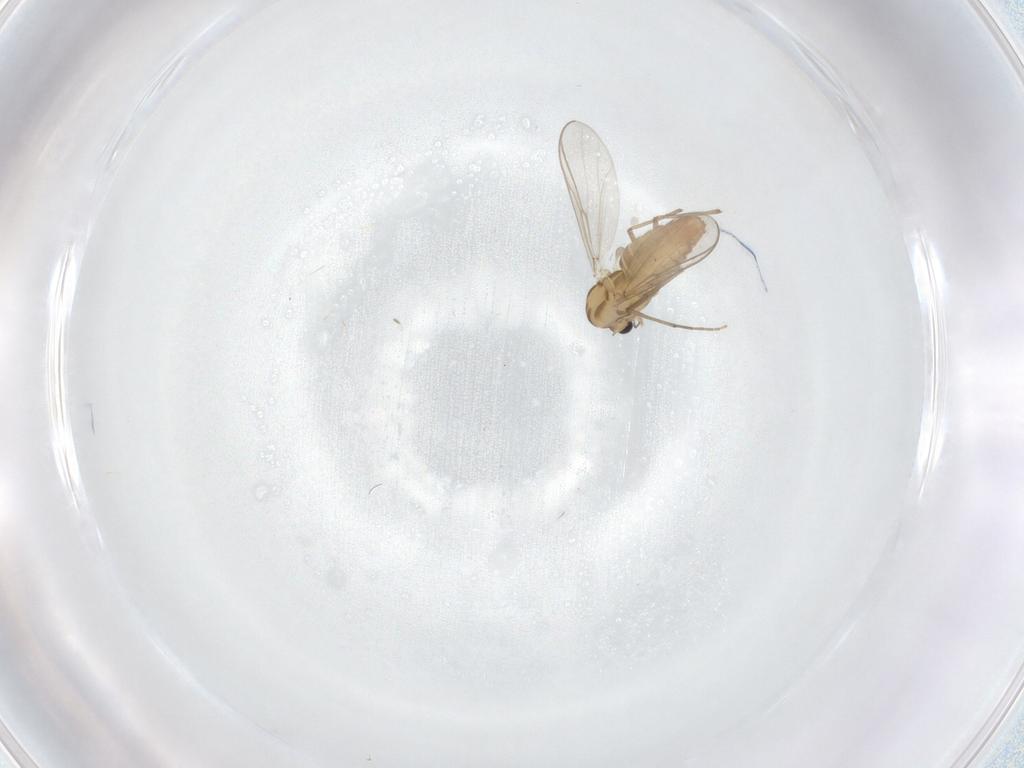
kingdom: Animalia
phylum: Arthropoda
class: Insecta
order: Diptera
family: Chironomidae
